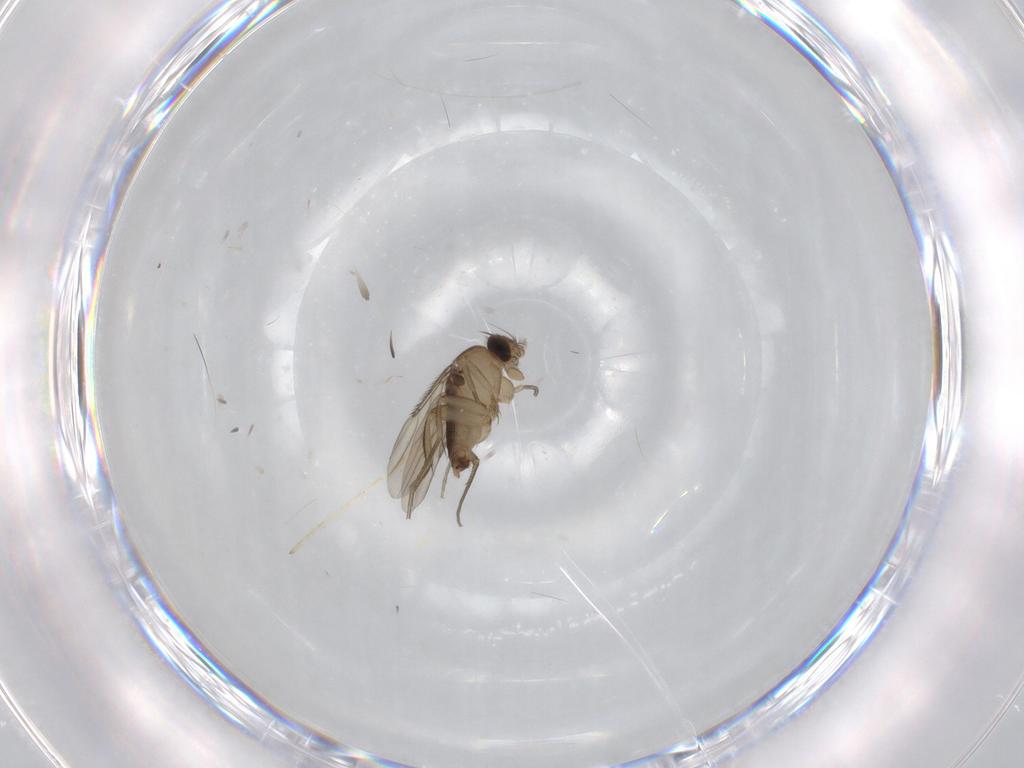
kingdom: Animalia
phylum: Arthropoda
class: Insecta
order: Diptera
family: Phoridae
